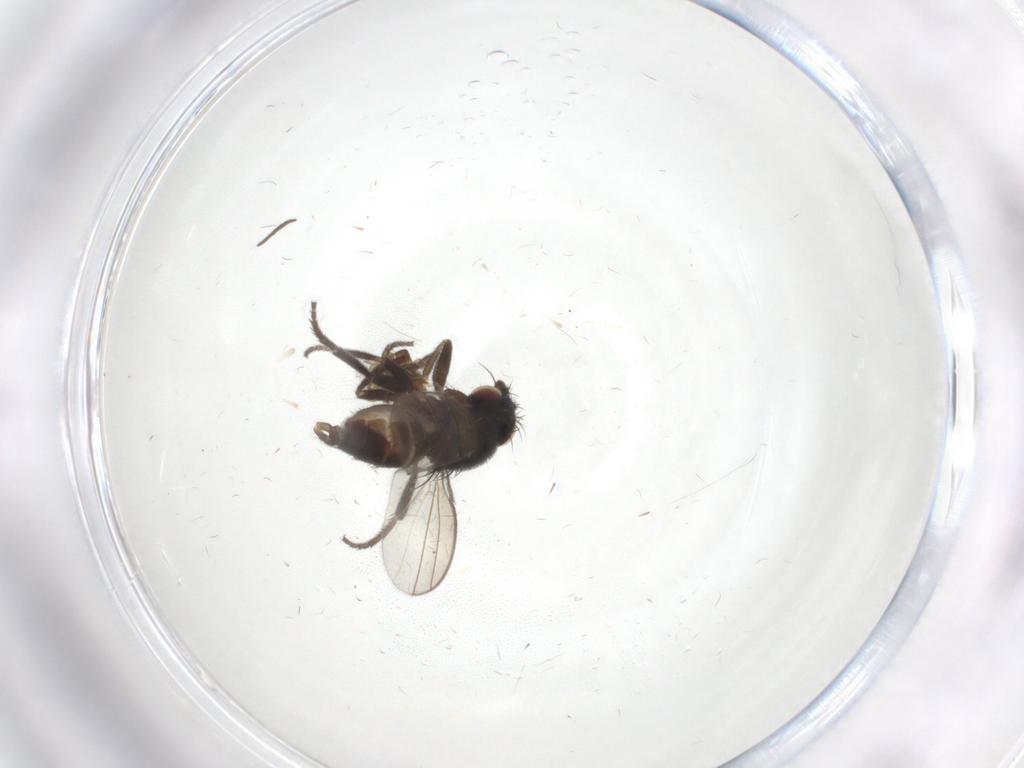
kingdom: Animalia
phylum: Arthropoda
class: Insecta
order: Diptera
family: Milichiidae
